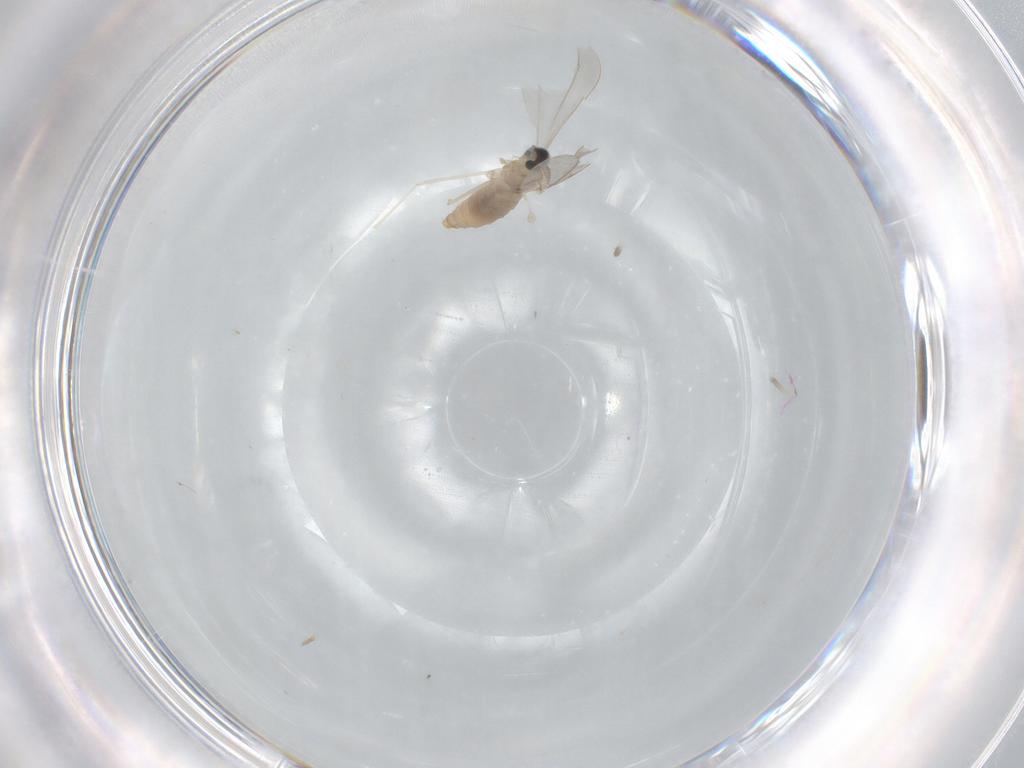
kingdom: Animalia
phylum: Arthropoda
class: Insecta
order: Diptera
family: Cecidomyiidae
